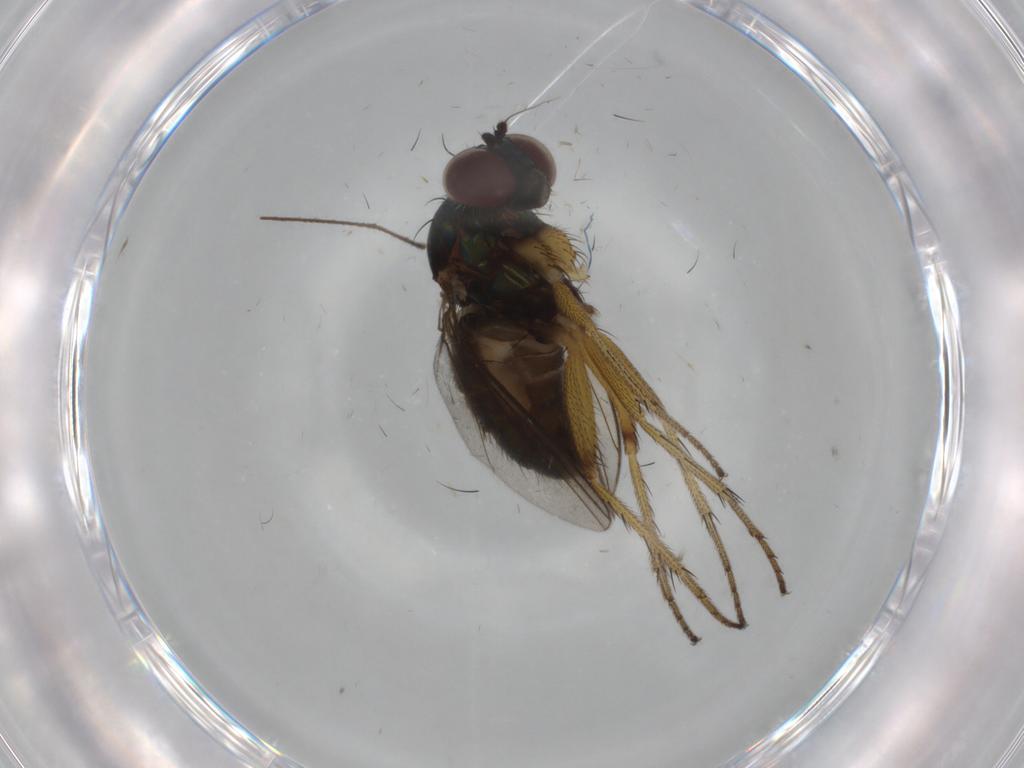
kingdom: Animalia
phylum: Arthropoda
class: Insecta
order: Diptera
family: Dolichopodidae
